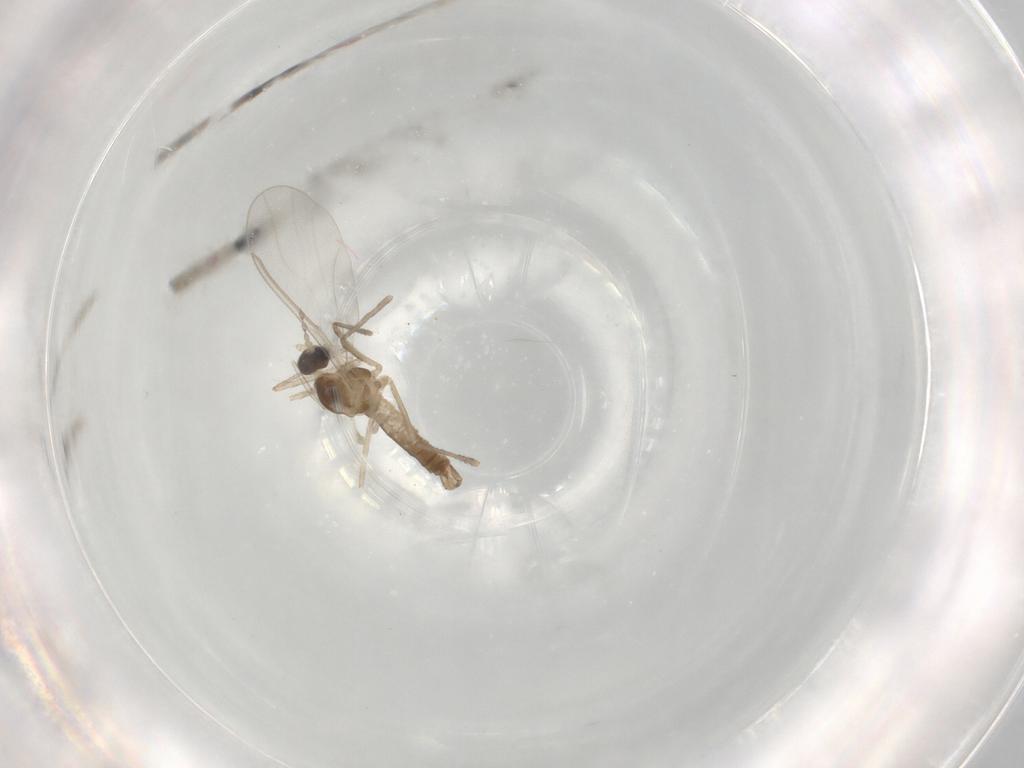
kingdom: Animalia
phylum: Arthropoda
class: Insecta
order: Diptera
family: Cecidomyiidae
